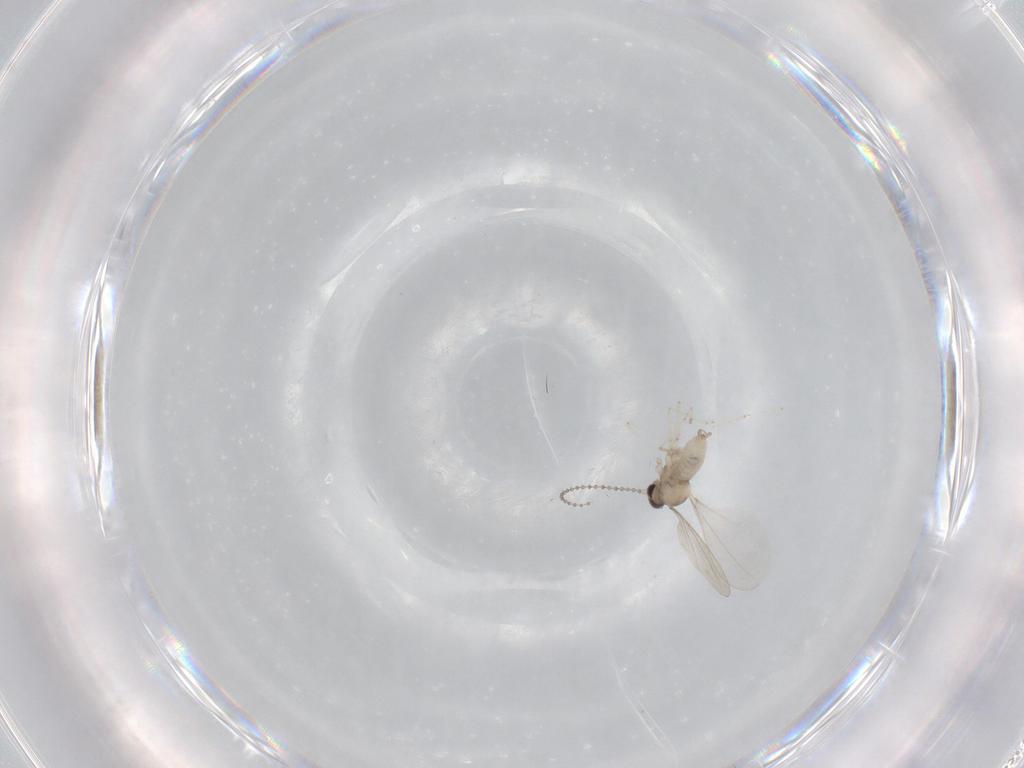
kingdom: Animalia
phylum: Arthropoda
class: Insecta
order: Diptera
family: Cecidomyiidae
